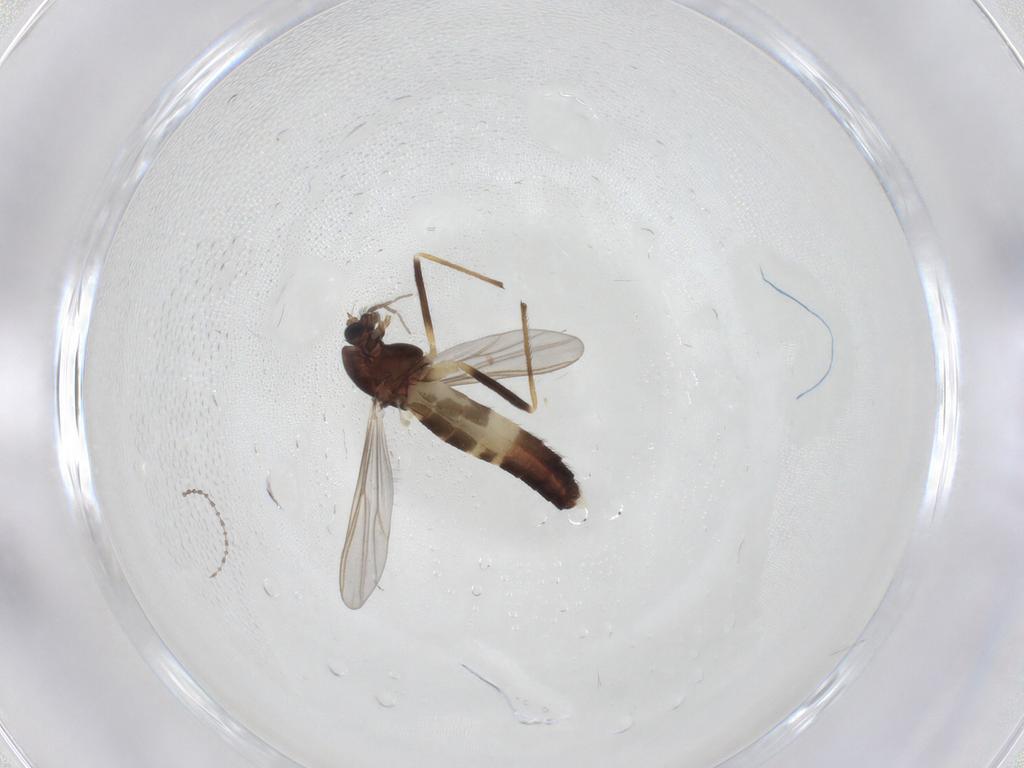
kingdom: Animalia
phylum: Arthropoda
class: Insecta
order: Diptera
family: Chironomidae
